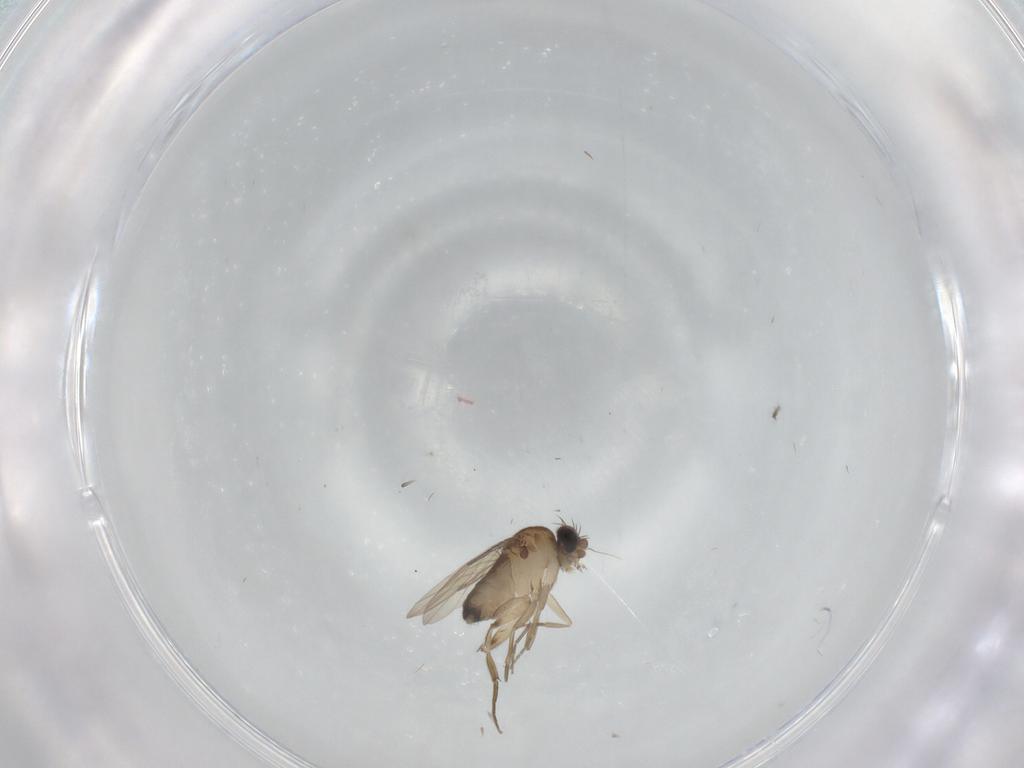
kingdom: Animalia
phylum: Arthropoda
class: Insecta
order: Diptera
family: Phoridae
